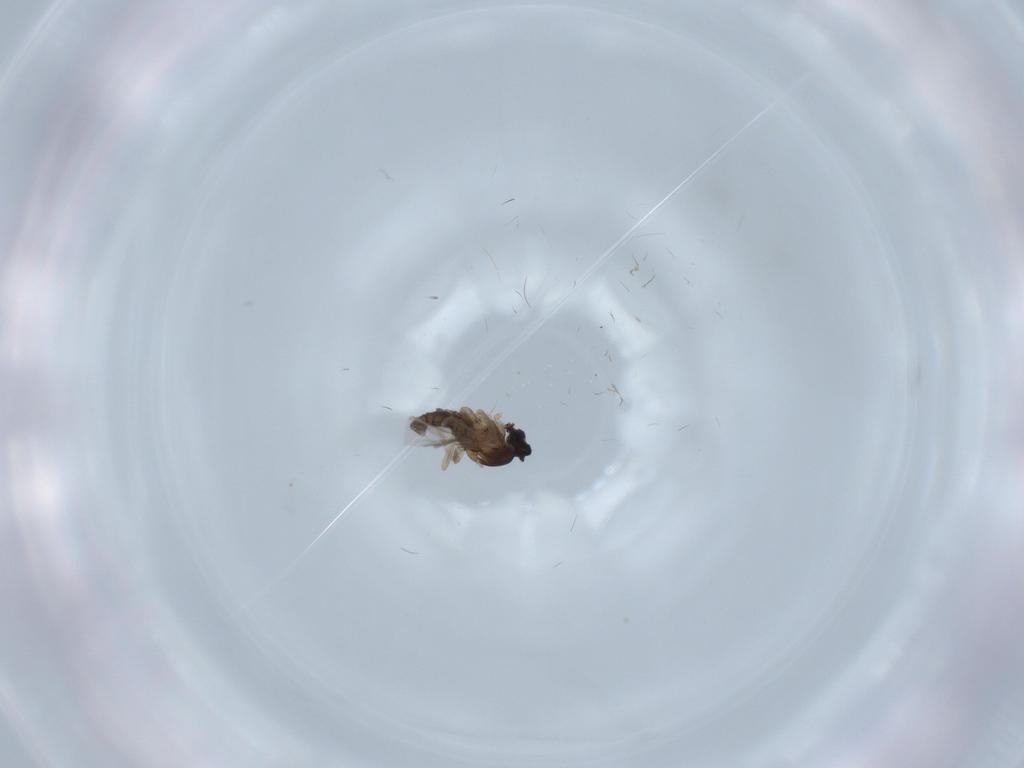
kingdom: Animalia
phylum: Arthropoda
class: Insecta
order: Diptera
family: Cecidomyiidae
